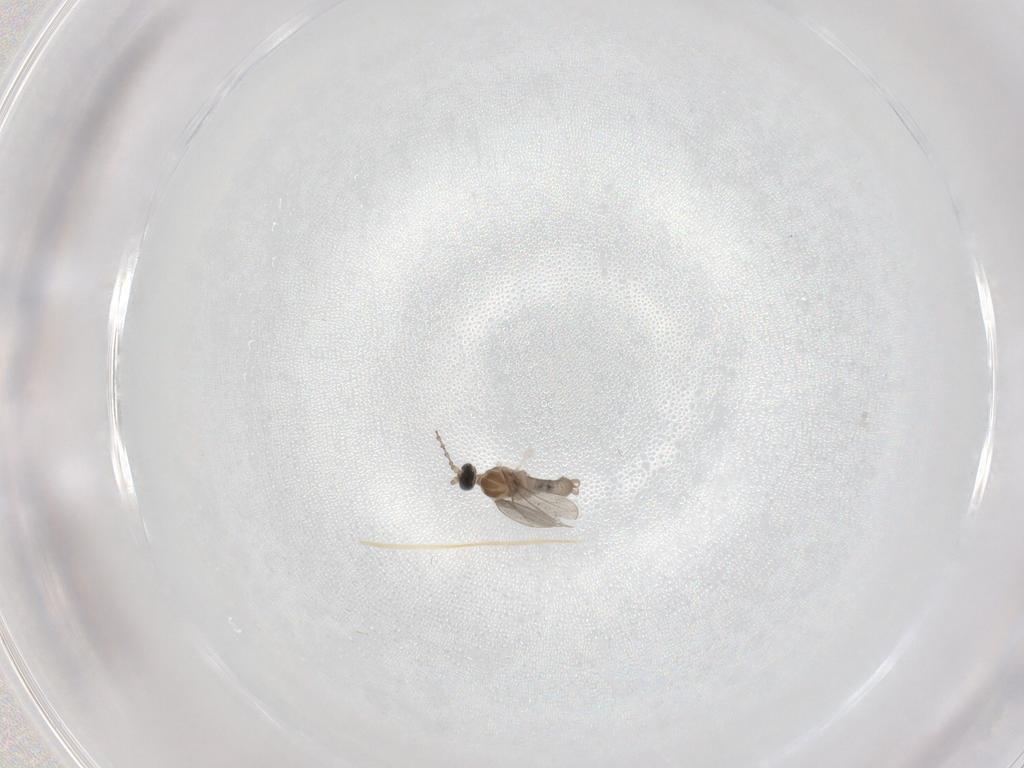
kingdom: Animalia
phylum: Arthropoda
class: Insecta
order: Diptera
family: Cecidomyiidae
